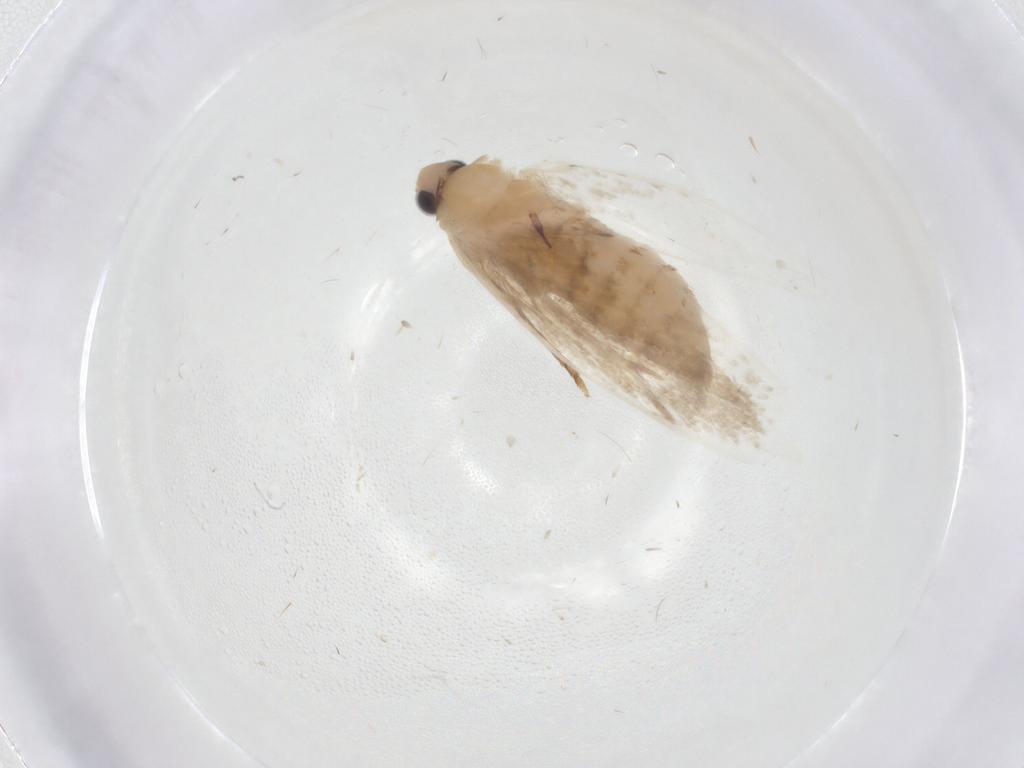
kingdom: Animalia
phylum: Arthropoda
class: Insecta
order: Lepidoptera
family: Tineidae
